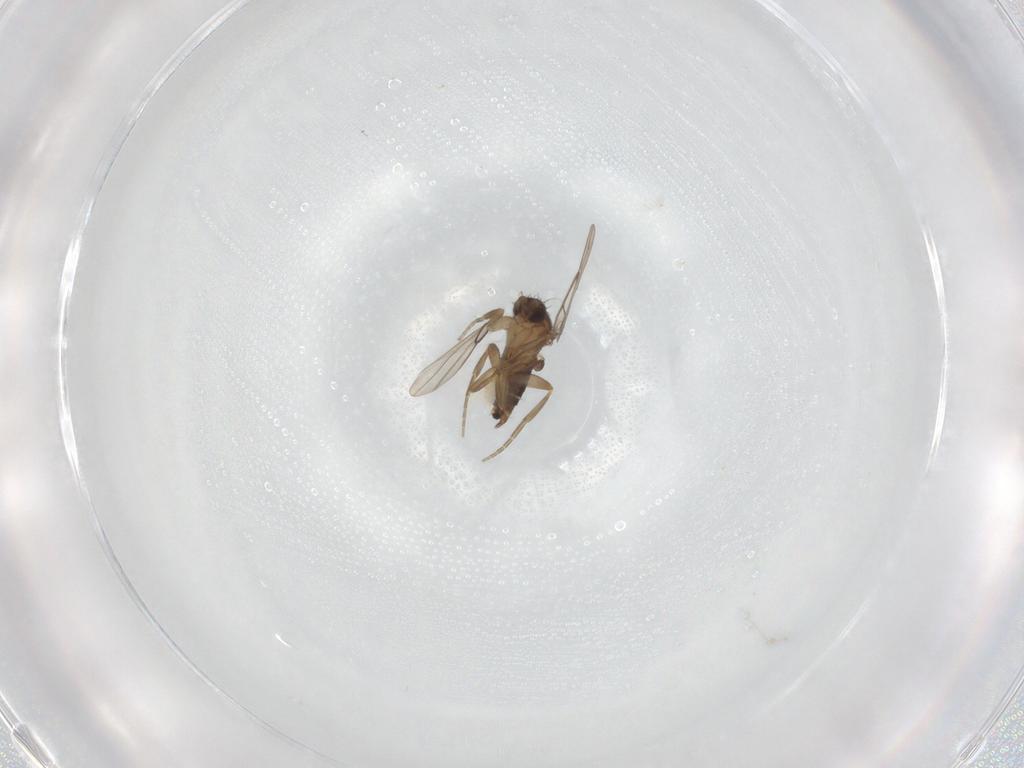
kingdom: Animalia
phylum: Arthropoda
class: Insecta
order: Diptera
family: Phoridae
